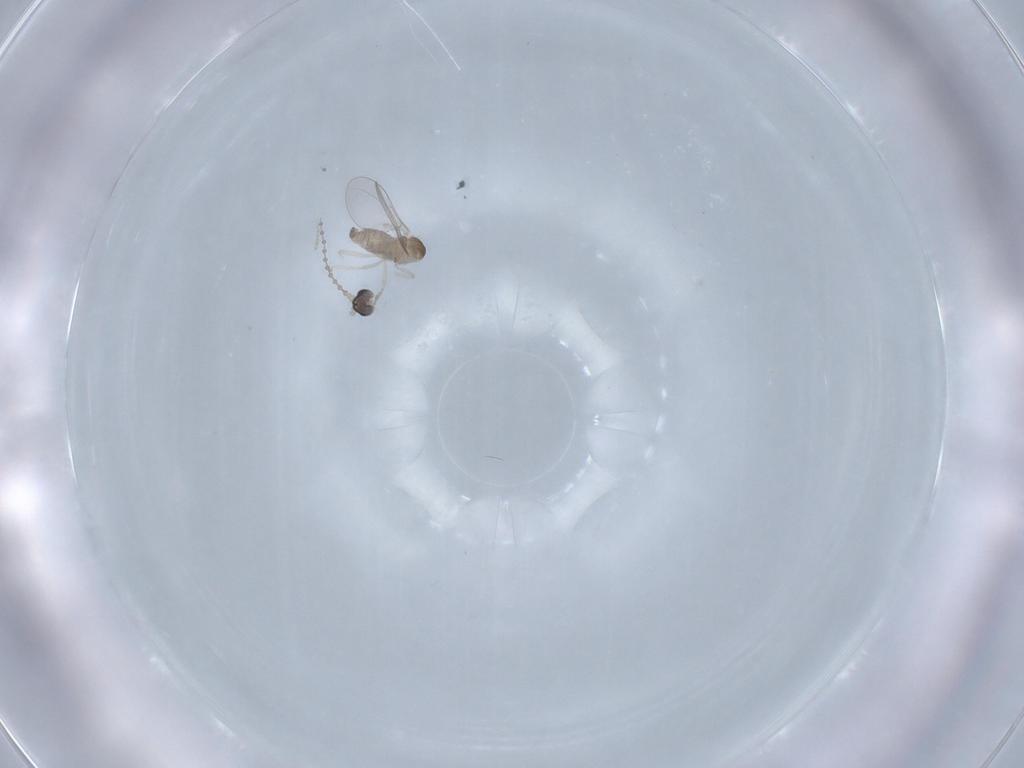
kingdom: Animalia
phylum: Arthropoda
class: Insecta
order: Diptera
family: Cecidomyiidae
